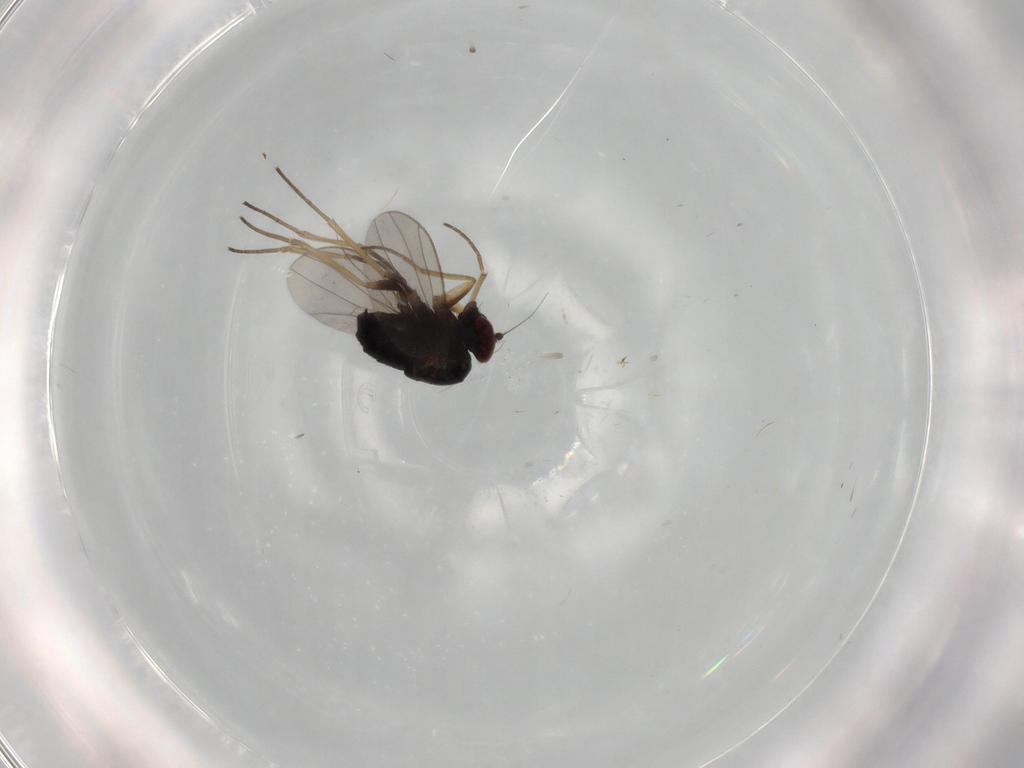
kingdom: Animalia
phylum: Arthropoda
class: Insecta
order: Diptera
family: Dolichopodidae
